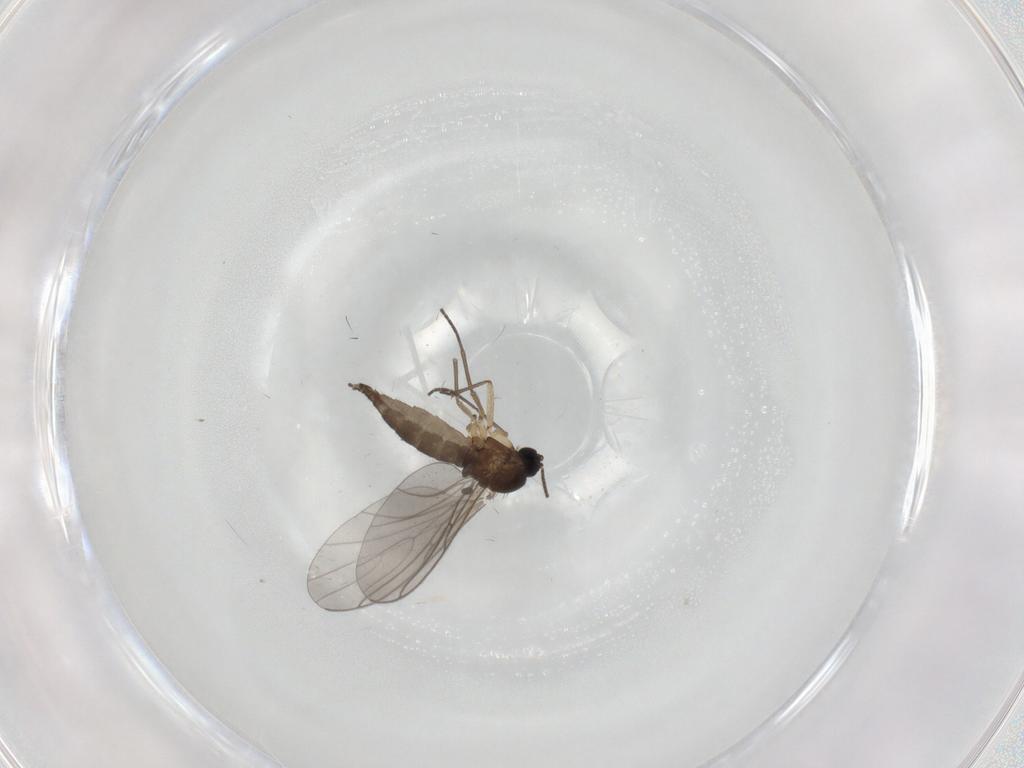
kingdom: Animalia
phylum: Arthropoda
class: Insecta
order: Diptera
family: Sciaridae
